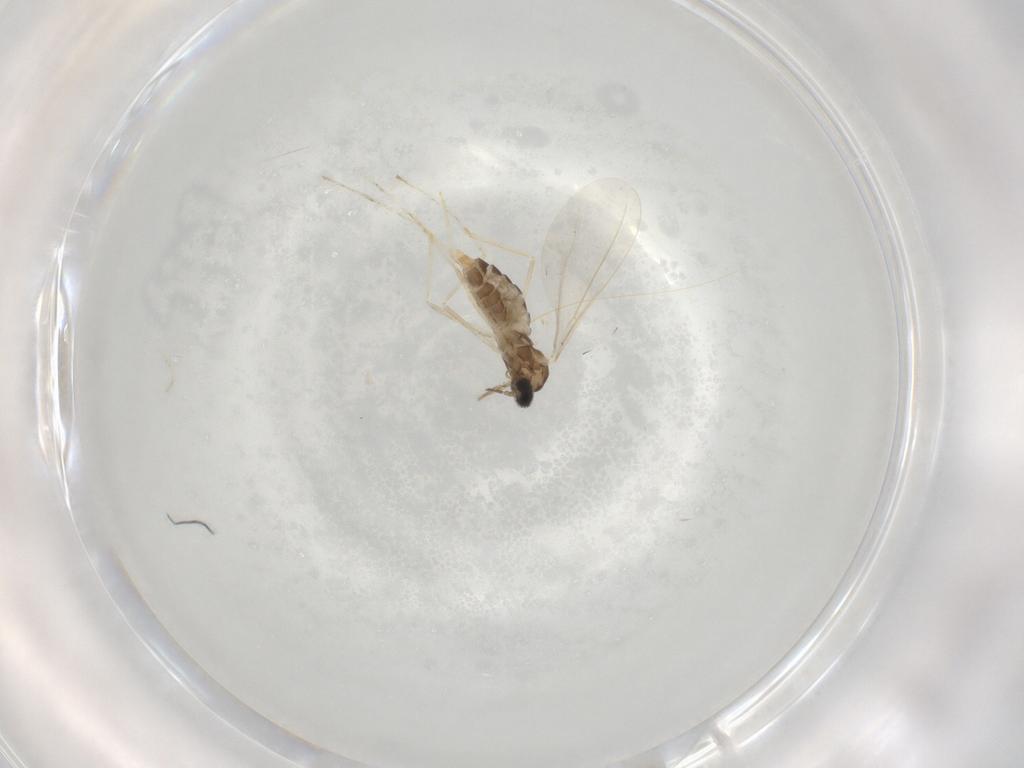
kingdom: Animalia
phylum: Arthropoda
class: Insecta
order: Diptera
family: Cecidomyiidae
